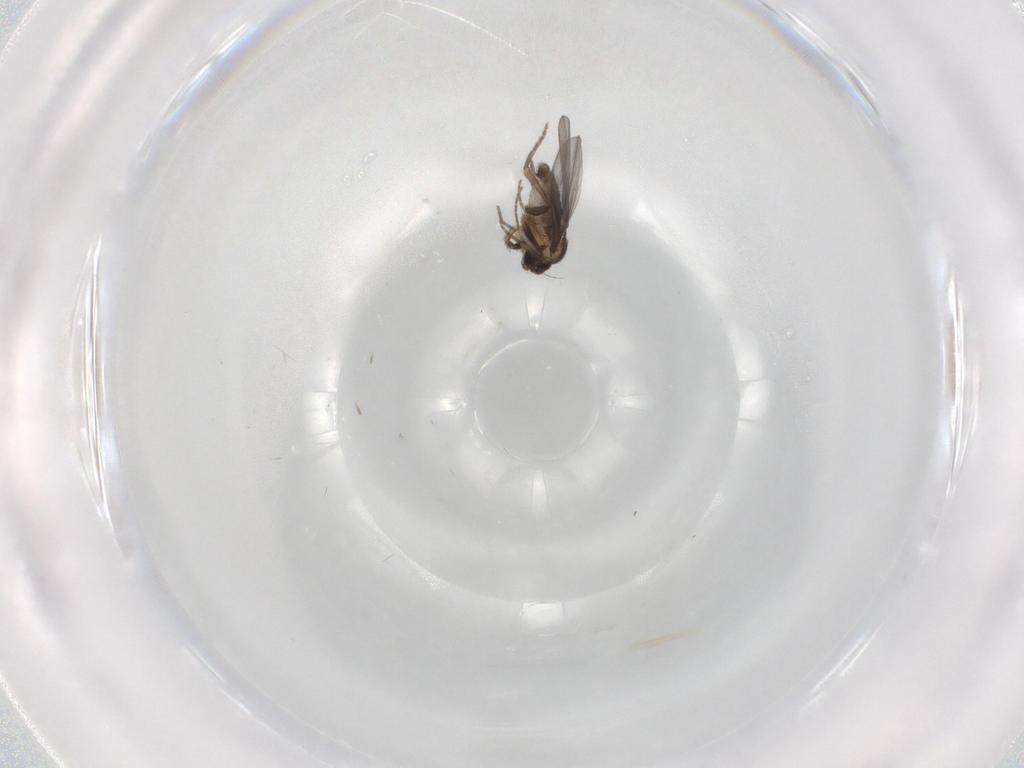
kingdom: Animalia
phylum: Arthropoda
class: Insecta
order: Diptera
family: Phoridae
